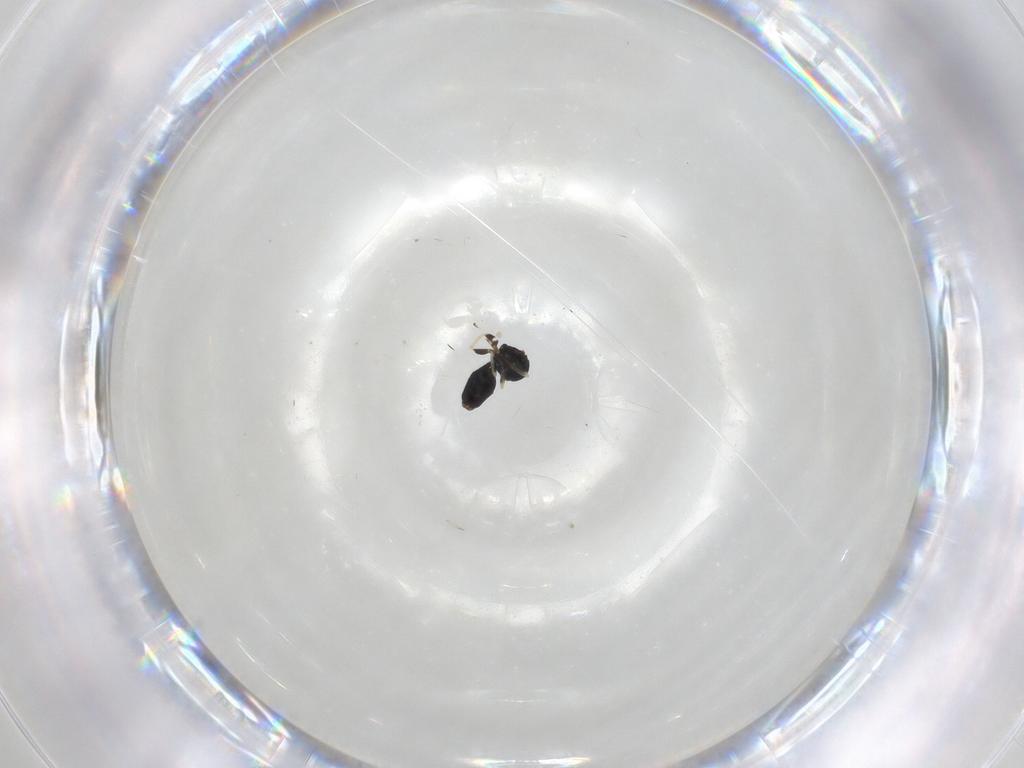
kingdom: Animalia
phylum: Arthropoda
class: Insecta
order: Hymenoptera
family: Eulophidae
